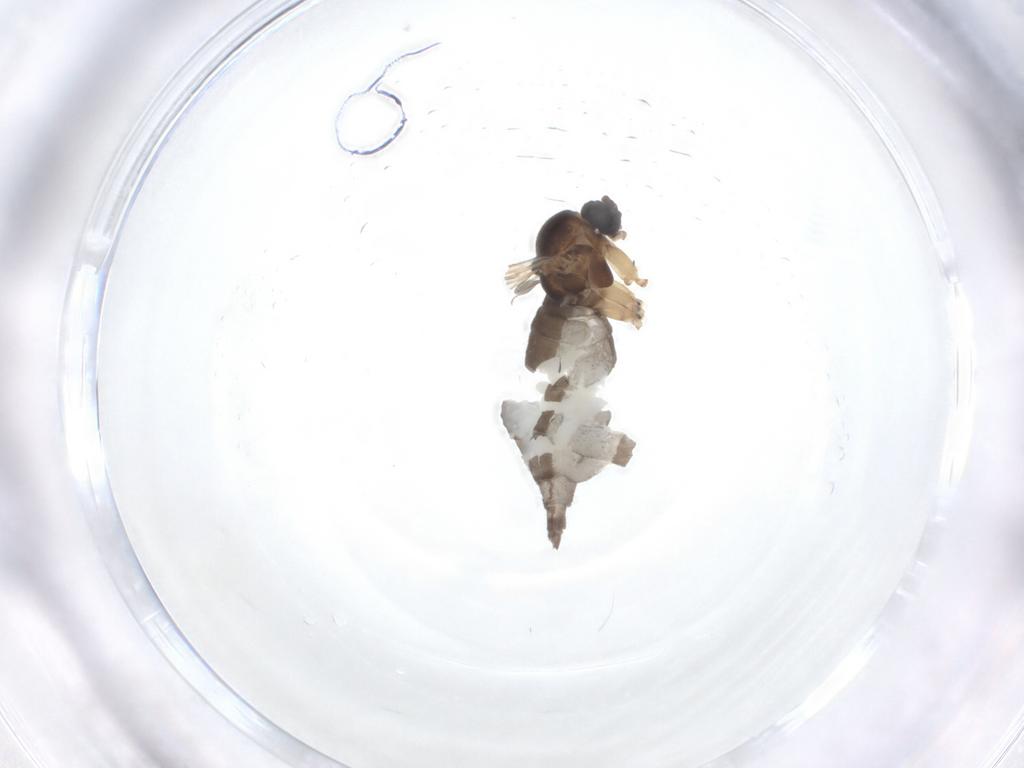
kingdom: Animalia
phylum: Arthropoda
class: Insecta
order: Diptera
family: Sciaridae
